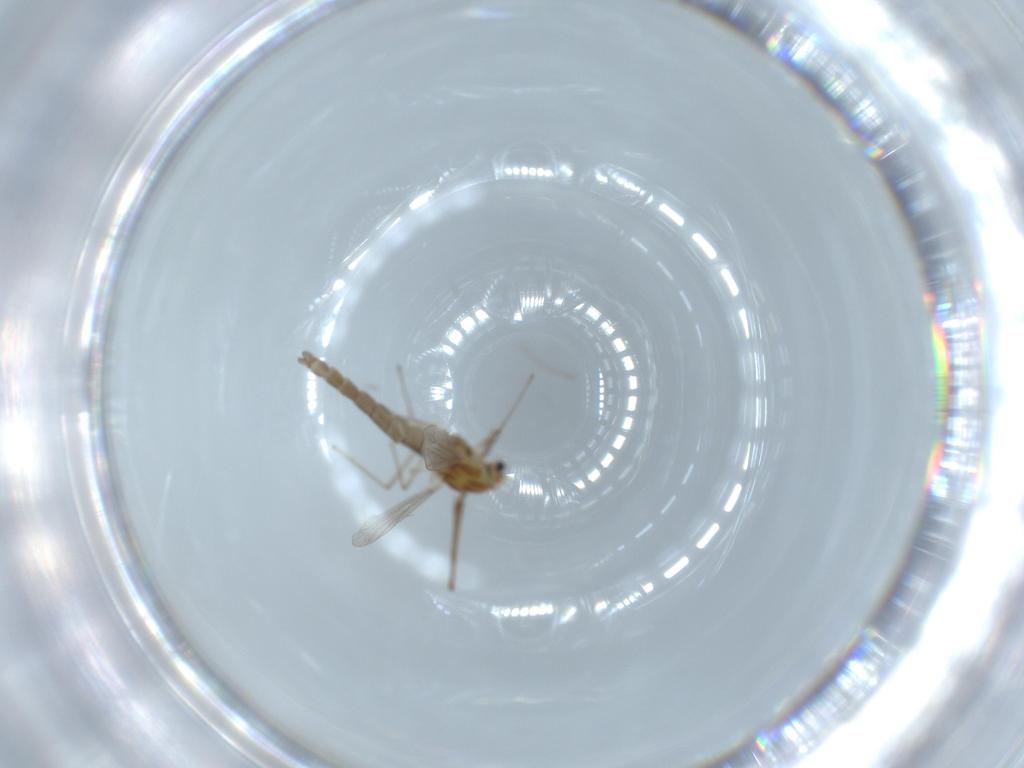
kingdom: Animalia
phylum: Arthropoda
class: Insecta
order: Diptera
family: Chironomidae
